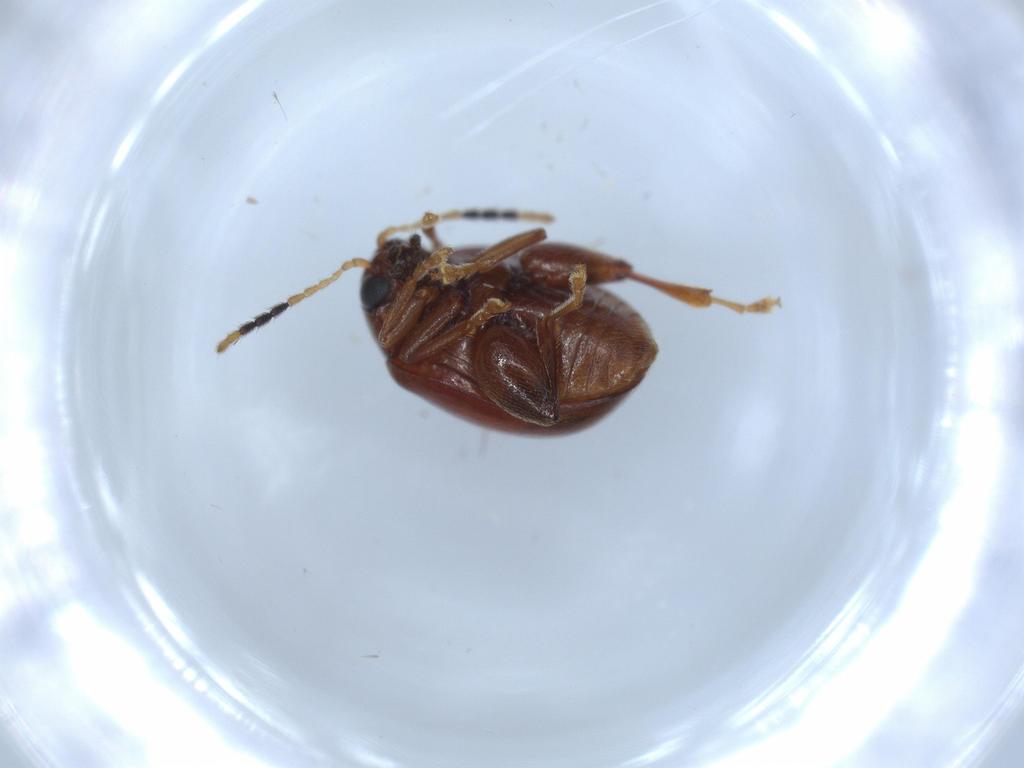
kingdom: Animalia
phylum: Arthropoda
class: Insecta
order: Coleoptera
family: Chrysomelidae
